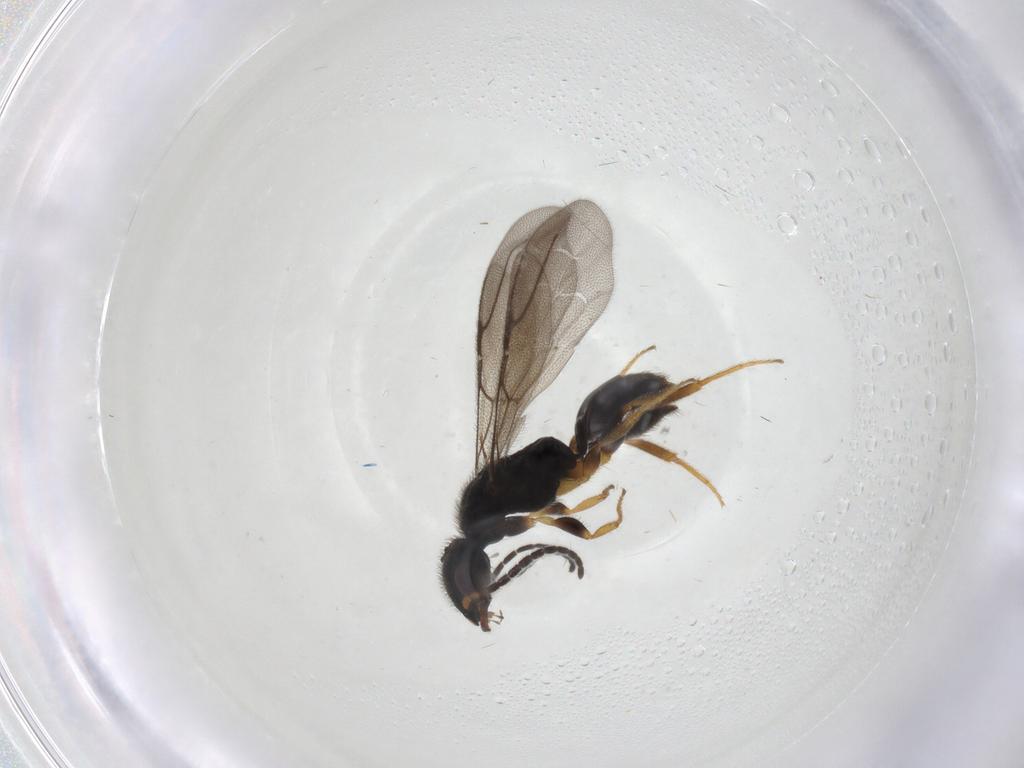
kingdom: Animalia
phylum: Arthropoda
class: Insecta
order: Hymenoptera
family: Bethylidae
